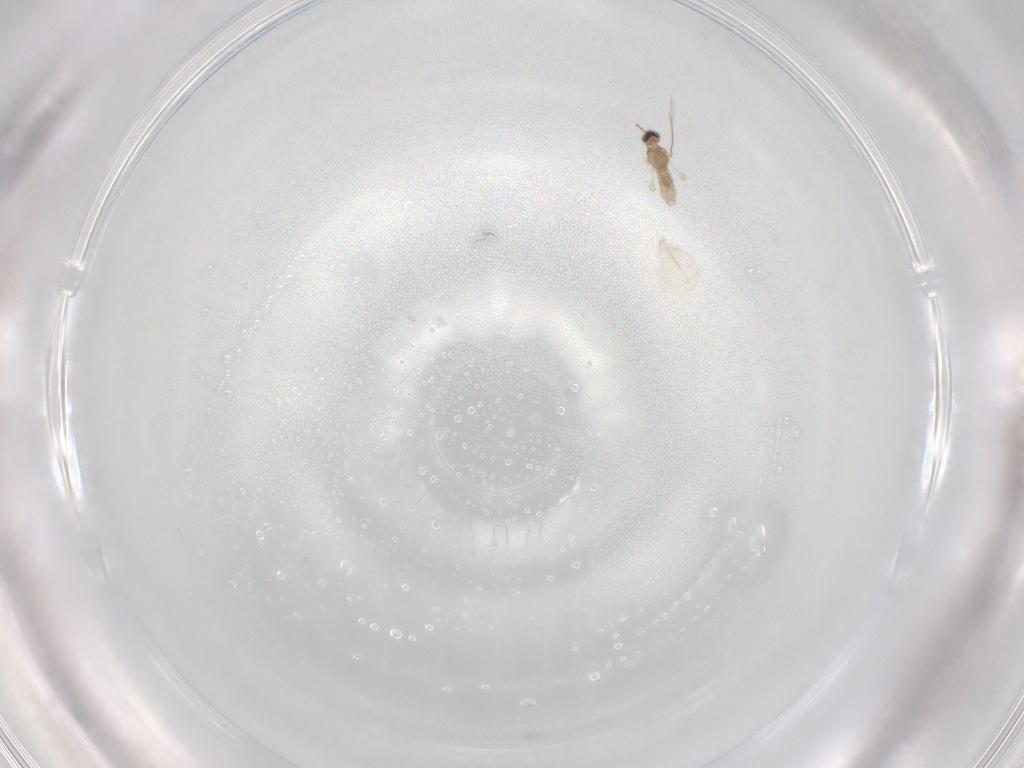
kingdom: Animalia
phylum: Arthropoda
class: Insecta
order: Diptera
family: Cecidomyiidae
